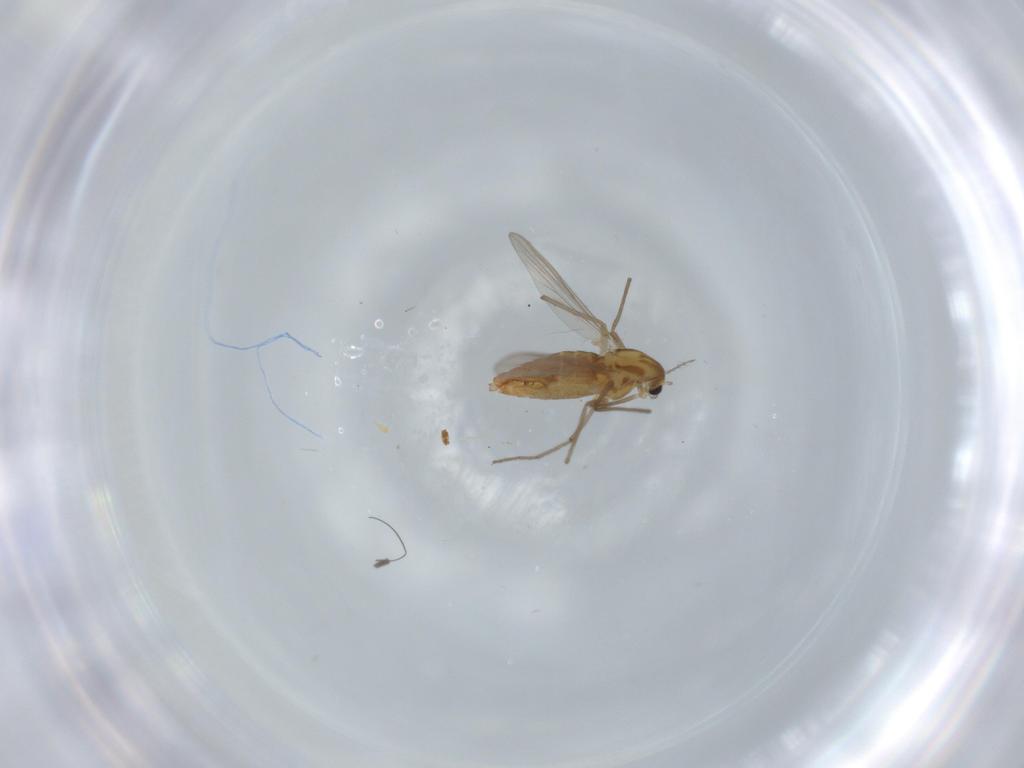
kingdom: Animalia
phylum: Arthropoda
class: Insecta
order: Diptera
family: Chironomidae
